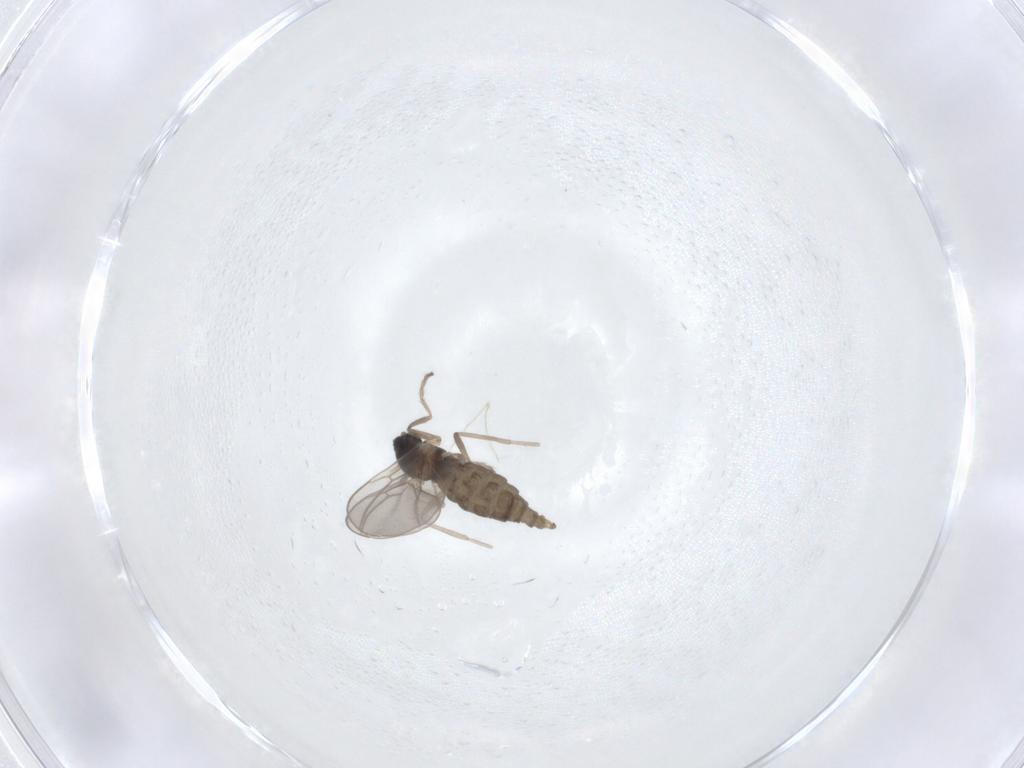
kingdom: Animalia
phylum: Arthropoda
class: Insecta
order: Diptera
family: Cecidomyiidae
